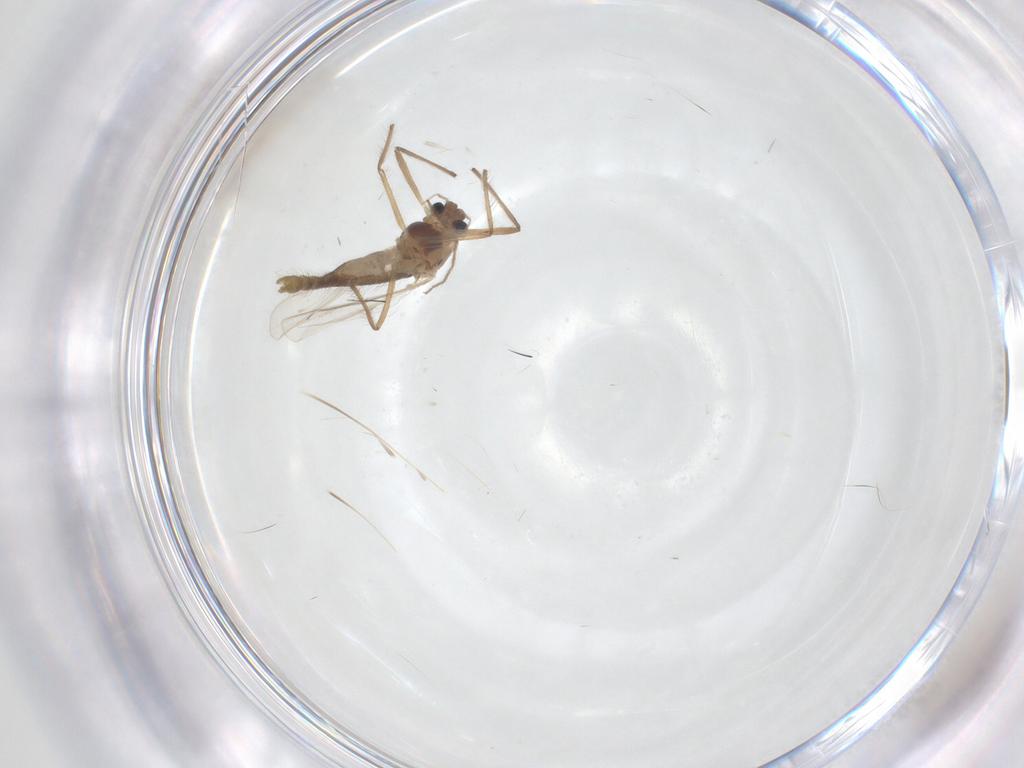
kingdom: Animalia
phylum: Arthropoda
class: Insecta
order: Diptera
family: Chironomidae
